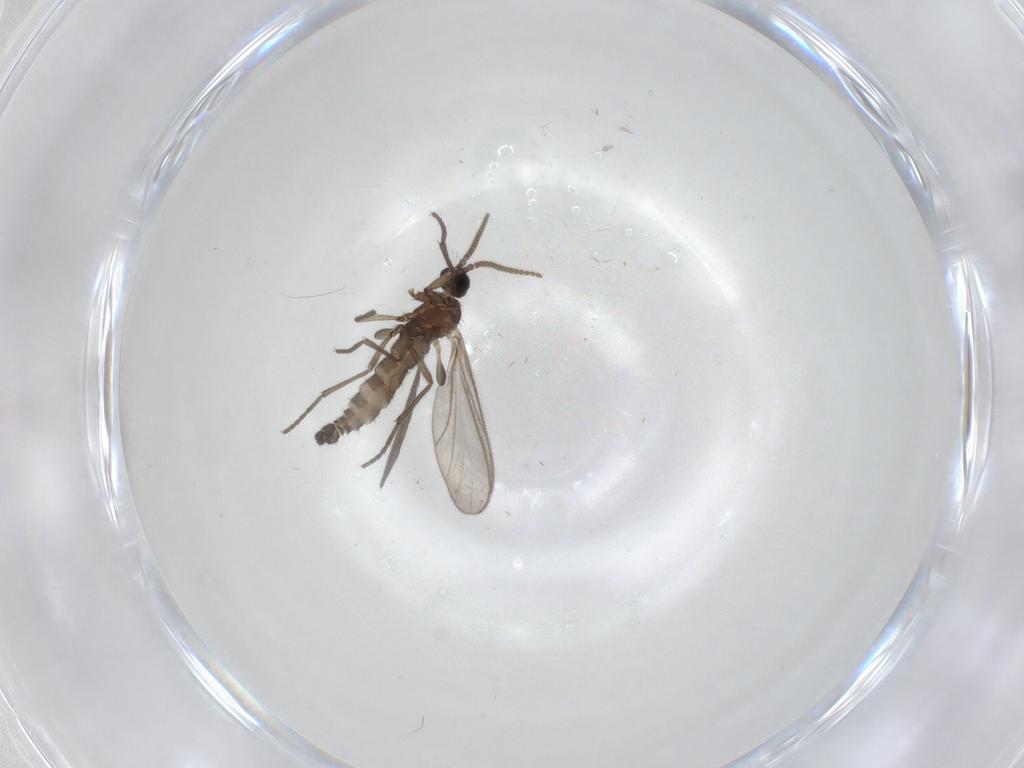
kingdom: Animalia
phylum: Arthropoda
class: Insecta
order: Diptera
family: Sciaridae
